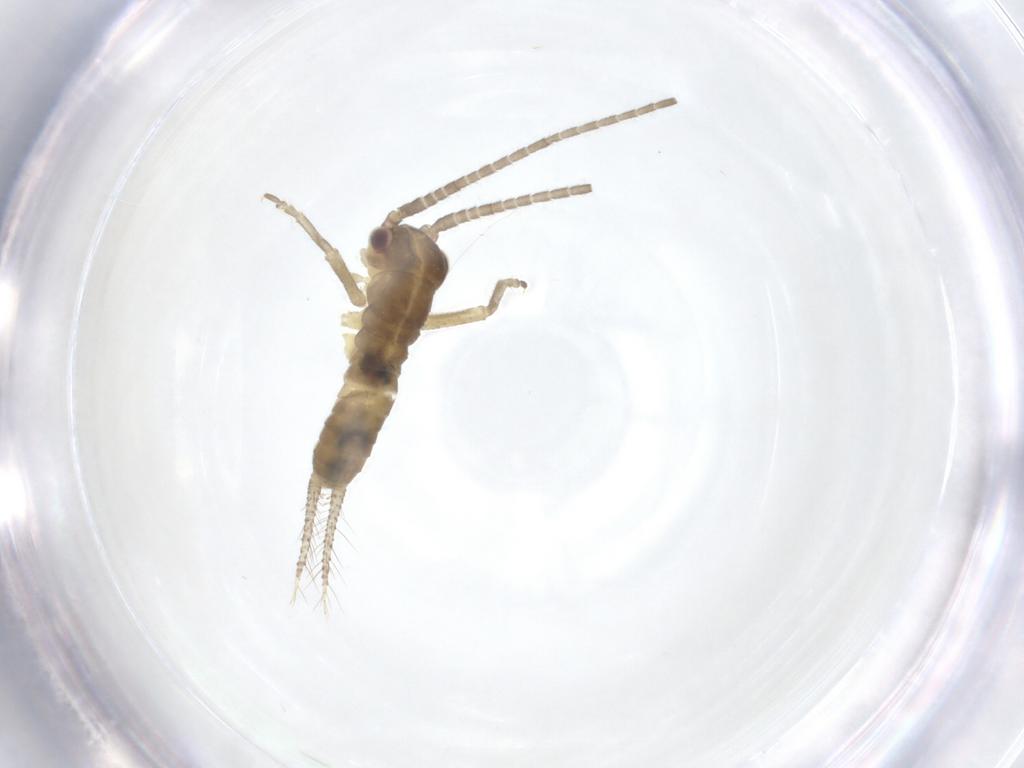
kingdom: Animalia
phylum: Arthropoda
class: Insecta
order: Orthoptera
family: Gryllidae
